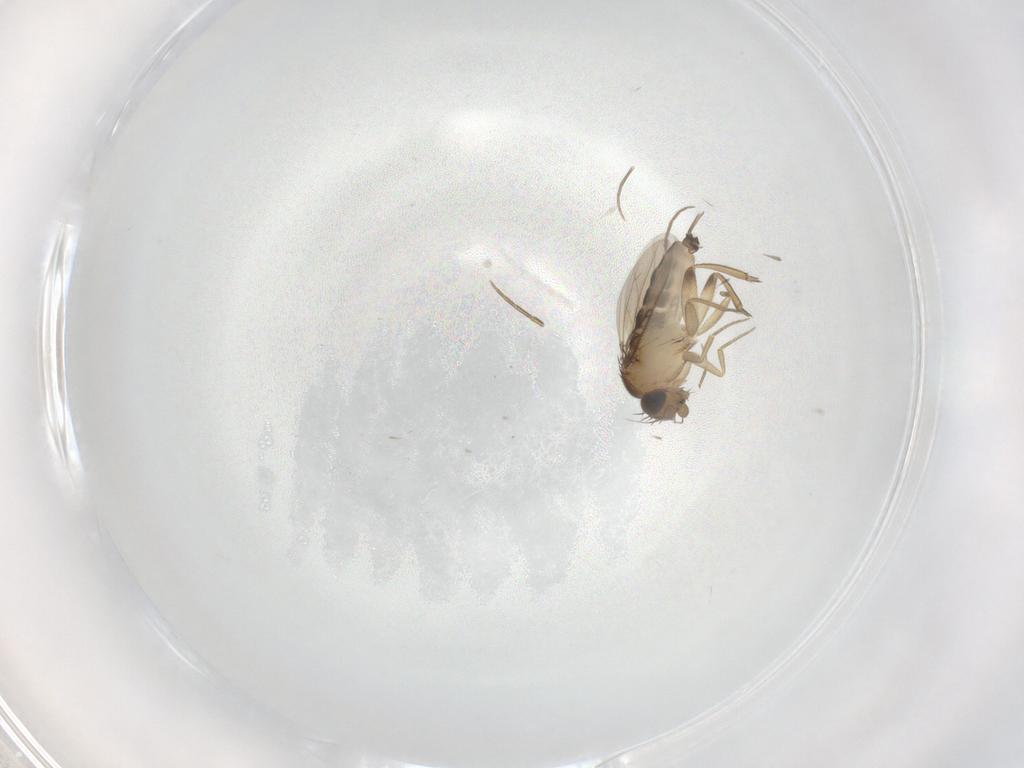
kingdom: Animalia
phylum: Arthropoda
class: Insecta
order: Diptera
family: Phoridae
